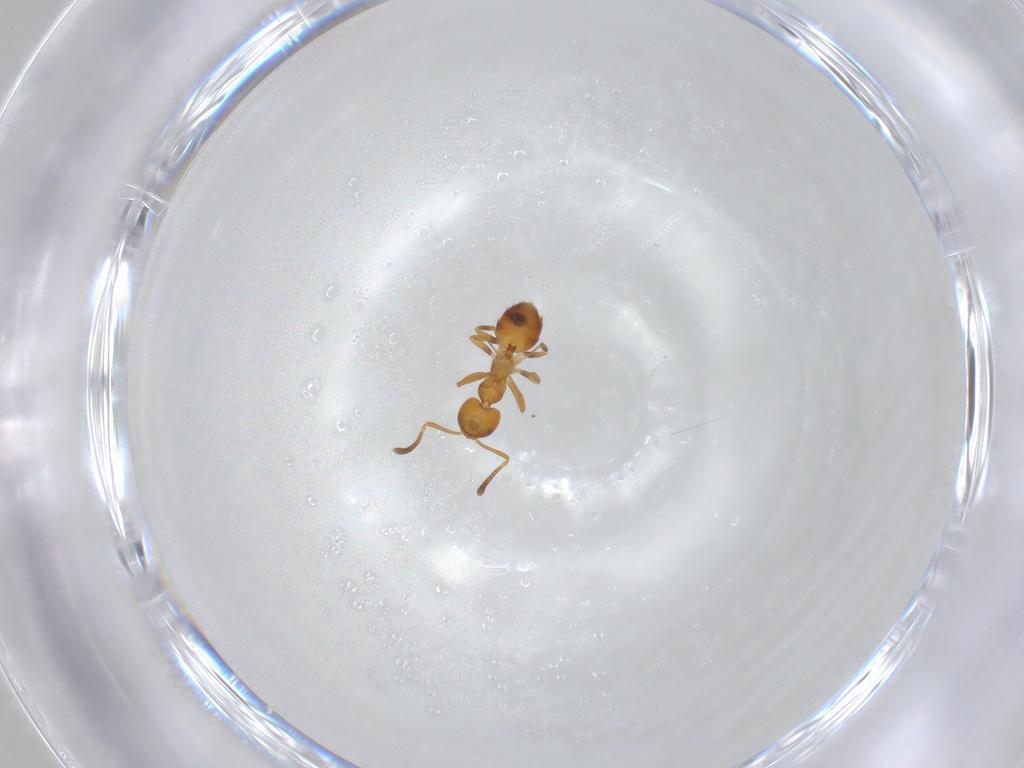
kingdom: Animalia
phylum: Arthropoda
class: Insecta
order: Hymenoptera
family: Formicidae
